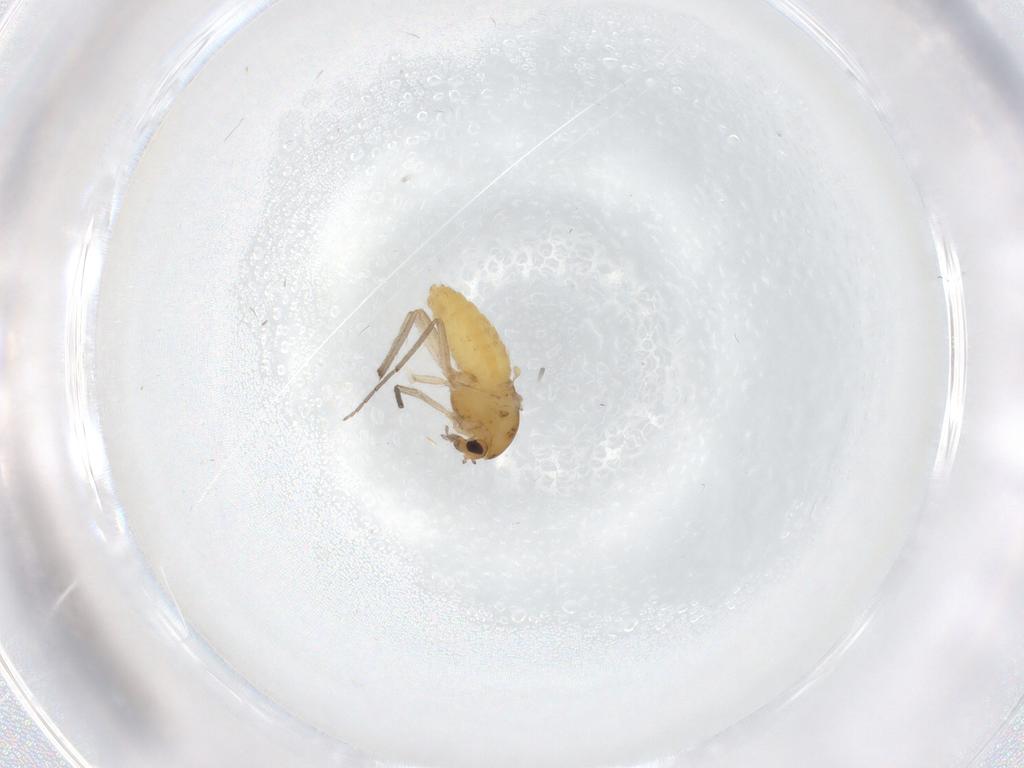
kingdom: Animalia
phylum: Arthropoda
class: Insecta
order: Diptera
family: Chironomidae
